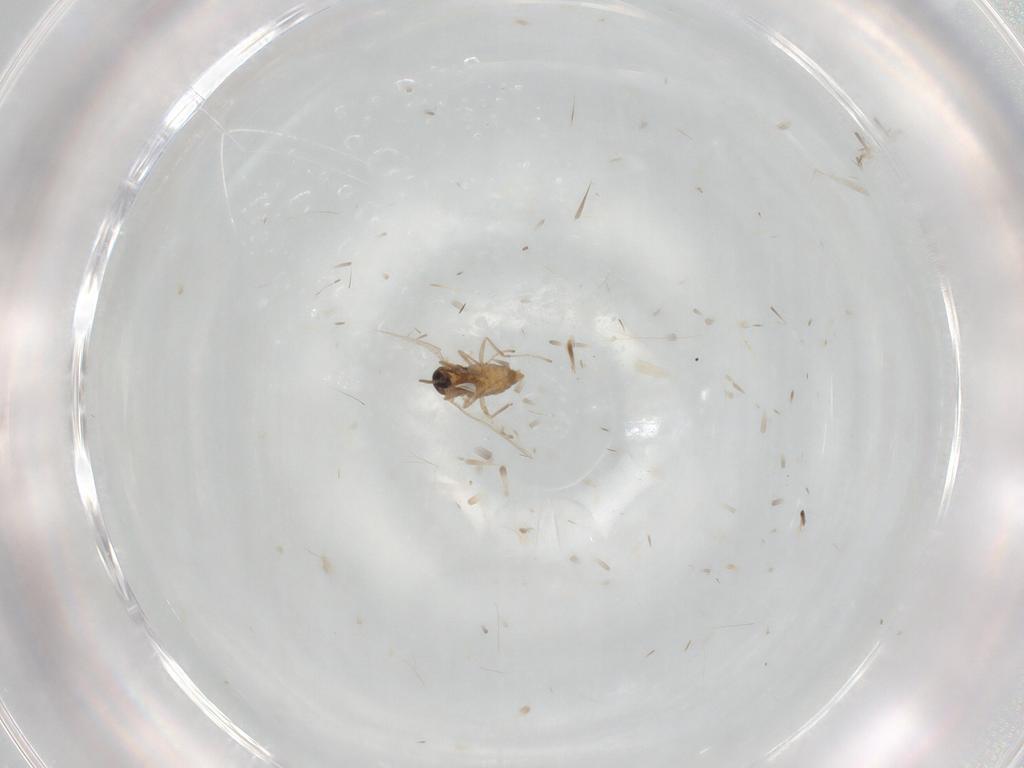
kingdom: Animalia
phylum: Arthropoda
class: Insecta
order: Diptera
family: Cecidomyiidae
